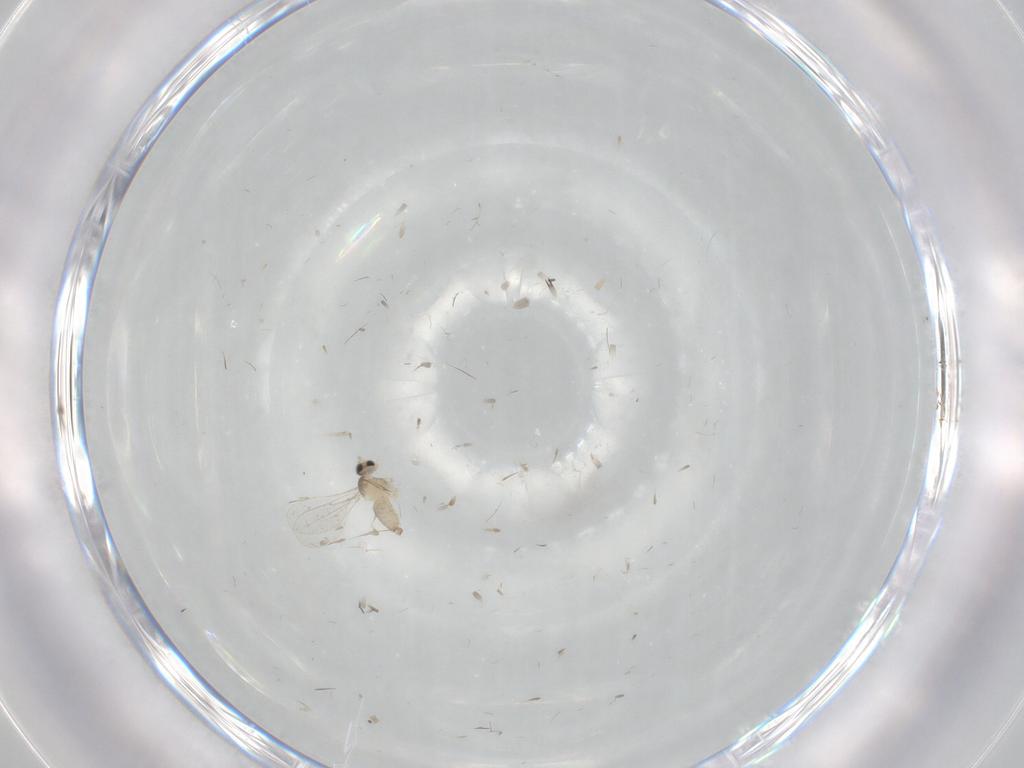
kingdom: Animalia
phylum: Arthropoda
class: Insecta
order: Diptera
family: Cecidomyiidae
